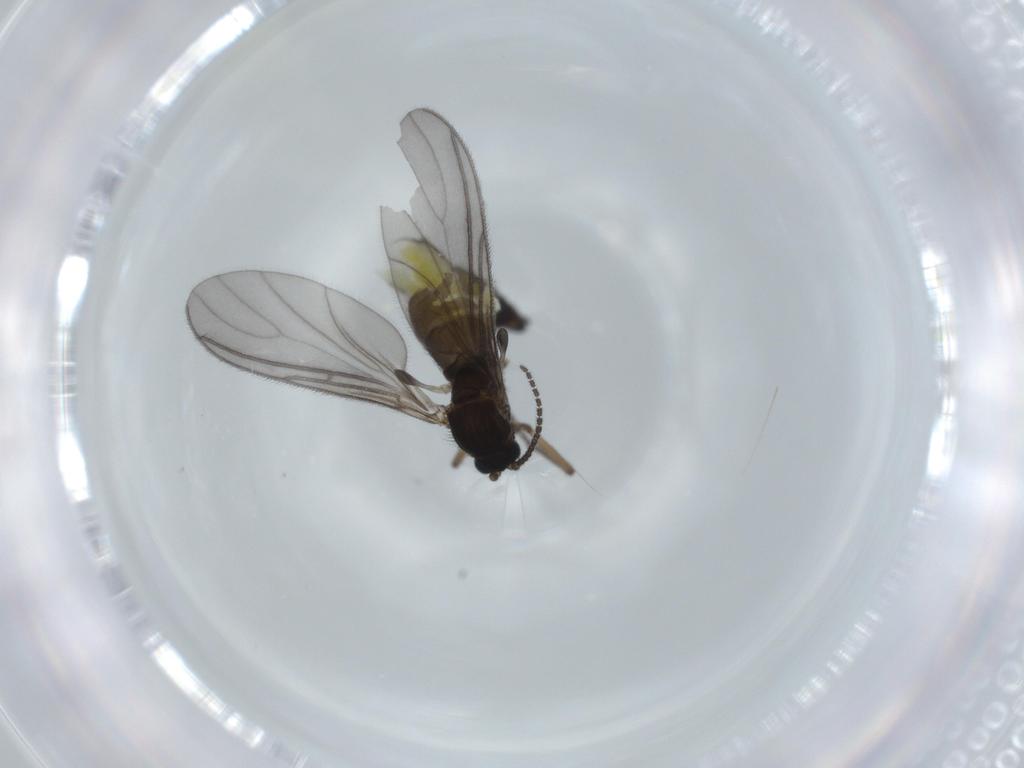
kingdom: Animalia
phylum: Arthropoda
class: Insecta
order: Diptera
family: Sciaridae
